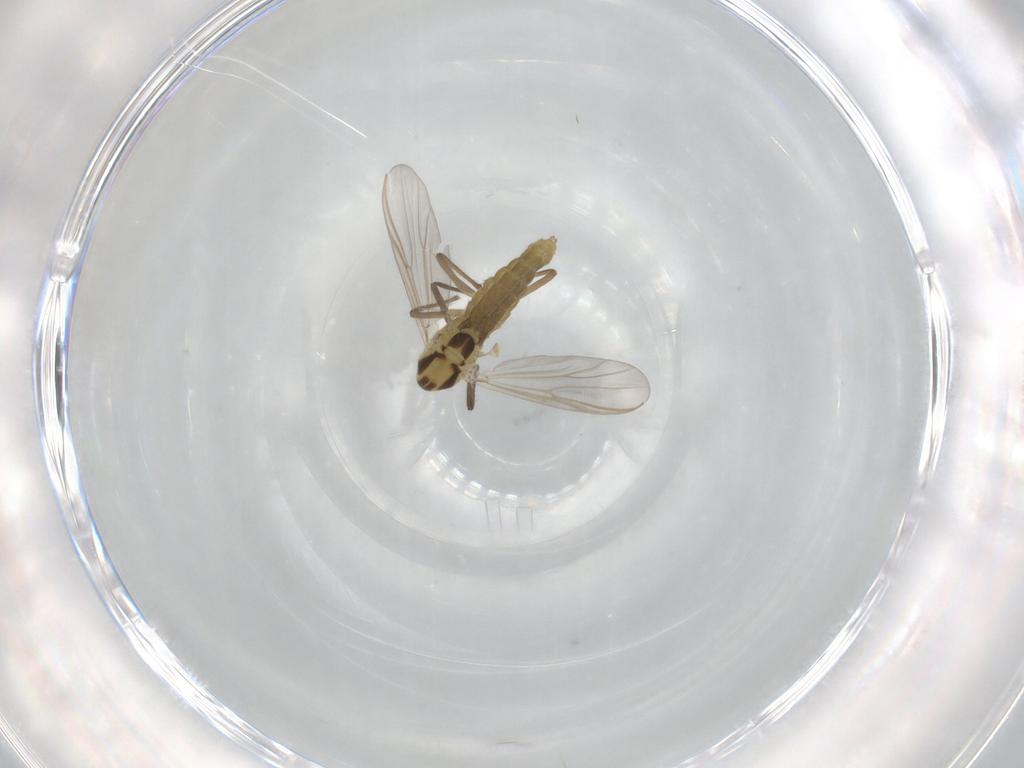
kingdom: Animalia
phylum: Arthropoda
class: Insecta
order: Diptera
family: Chironomidae
